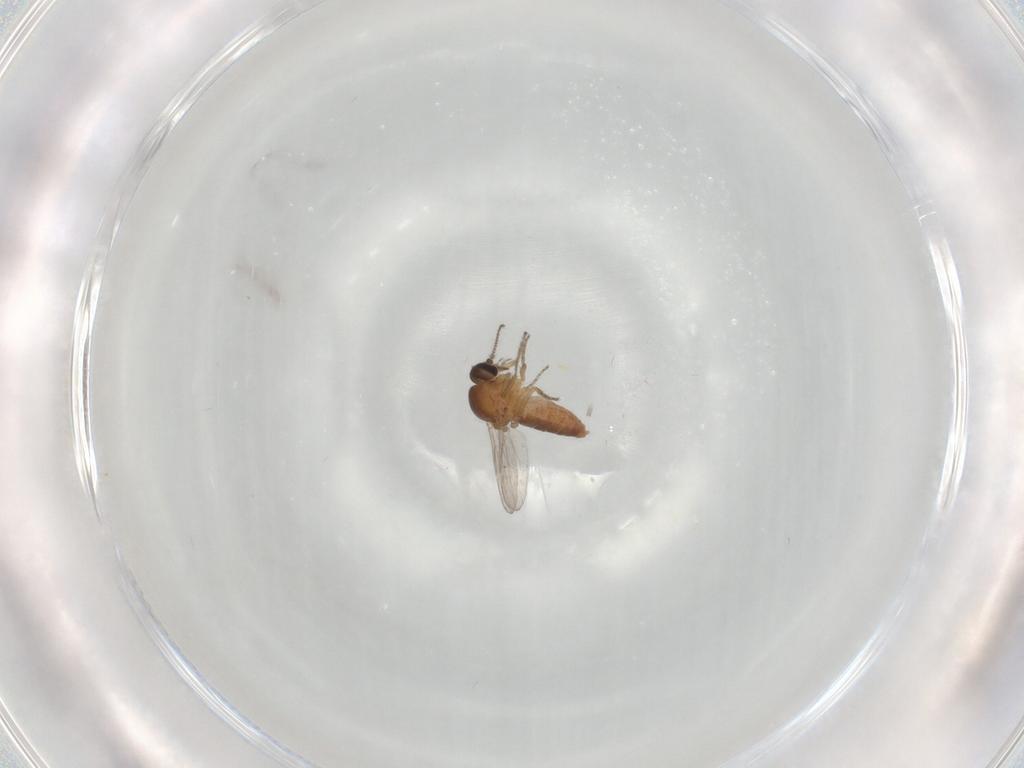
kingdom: Animalia
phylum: Arthropoda
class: Insecta
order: Diptera
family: Ceratopogonidae
